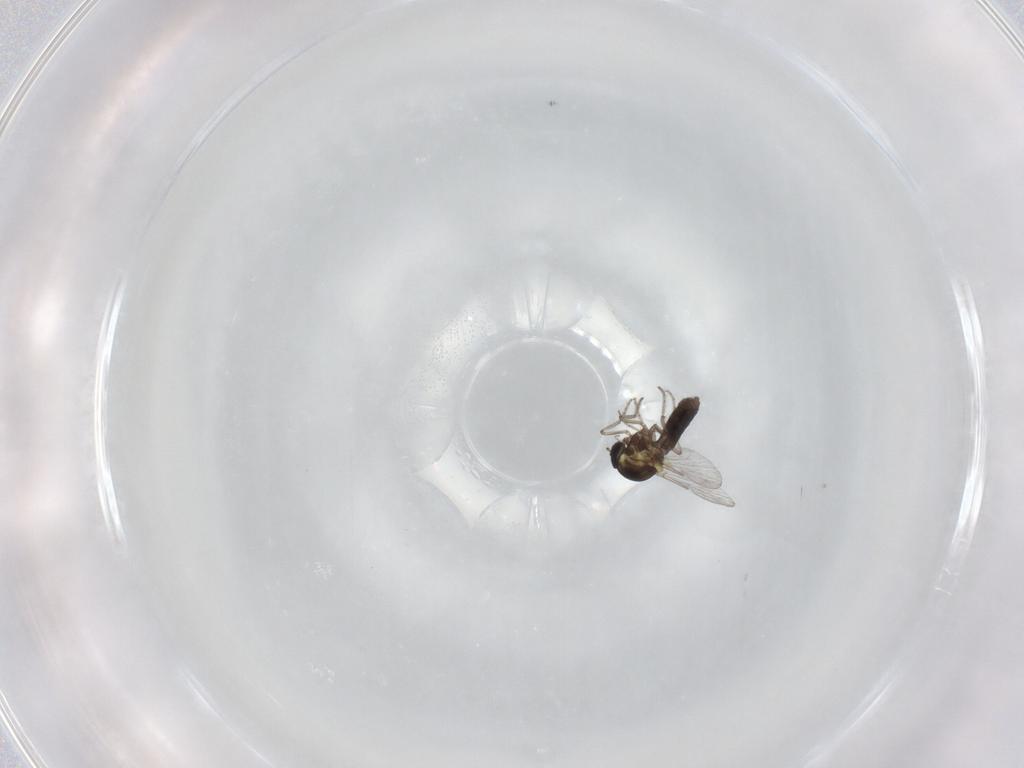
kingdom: Animalia
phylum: Arthropoda
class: Insecta
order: Diptera
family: Ceratopogonidae
